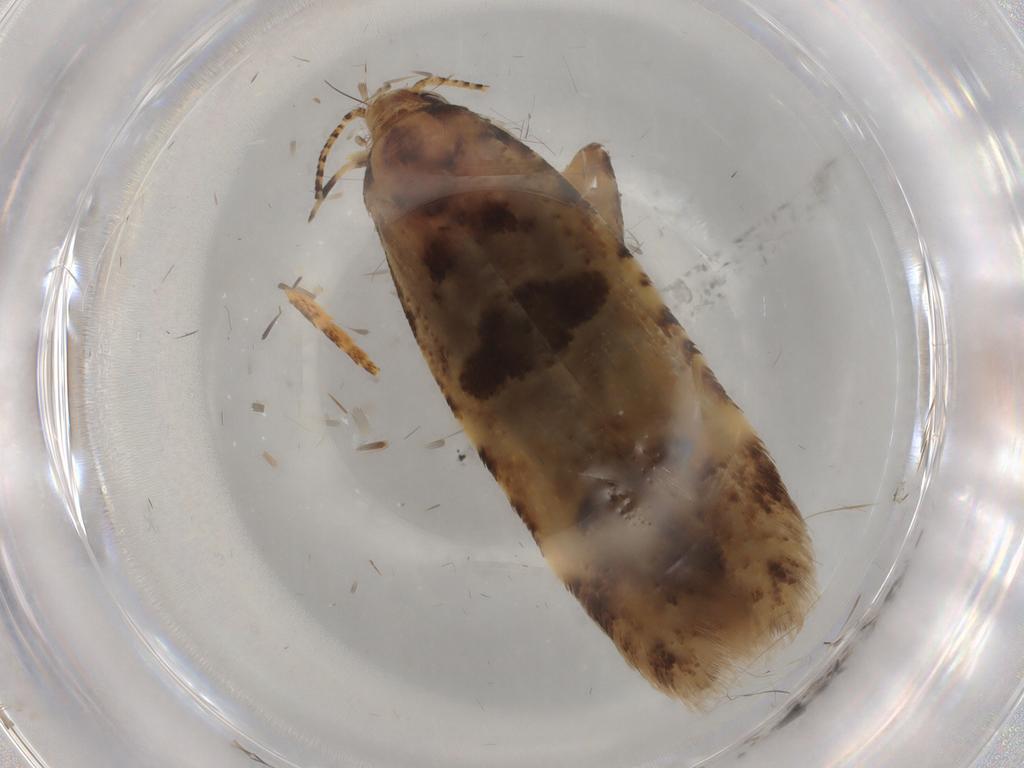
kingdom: Animalia
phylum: Arthropoda
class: Insecta
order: Lepidoptera
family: Gelechiidae
